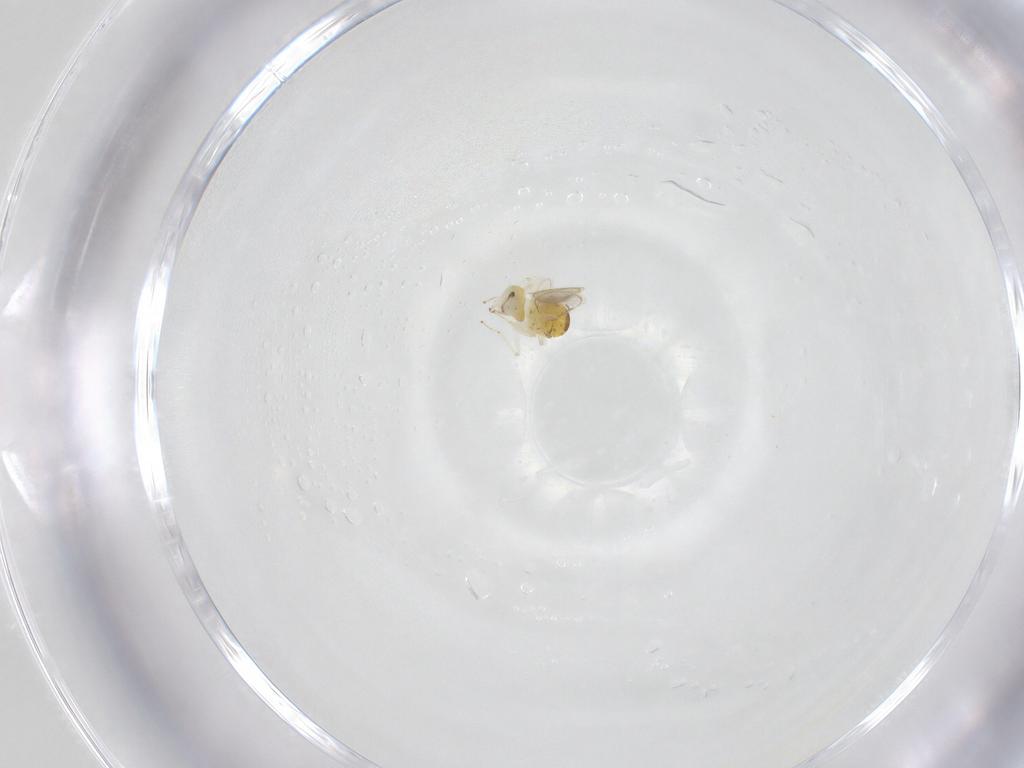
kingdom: Animalia
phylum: Arthropoda
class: Insecta
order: Hymenoptera
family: Eulophidae
